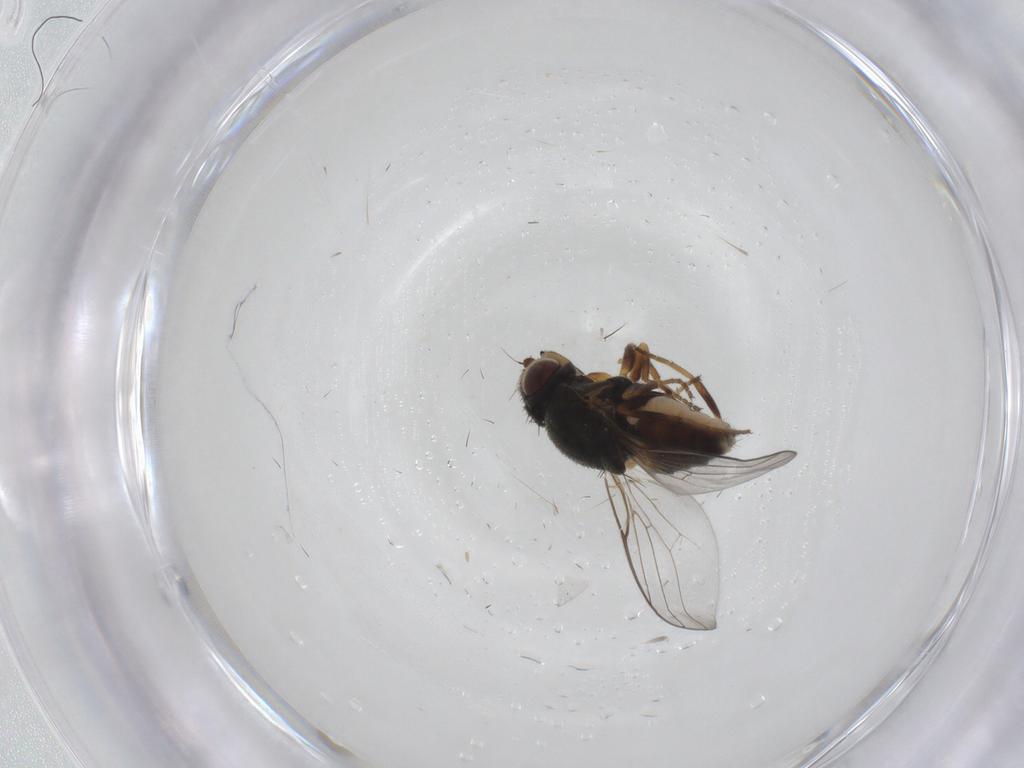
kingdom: Animalia
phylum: Arthropoda
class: Insecta
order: Diptera
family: Chloropidae
